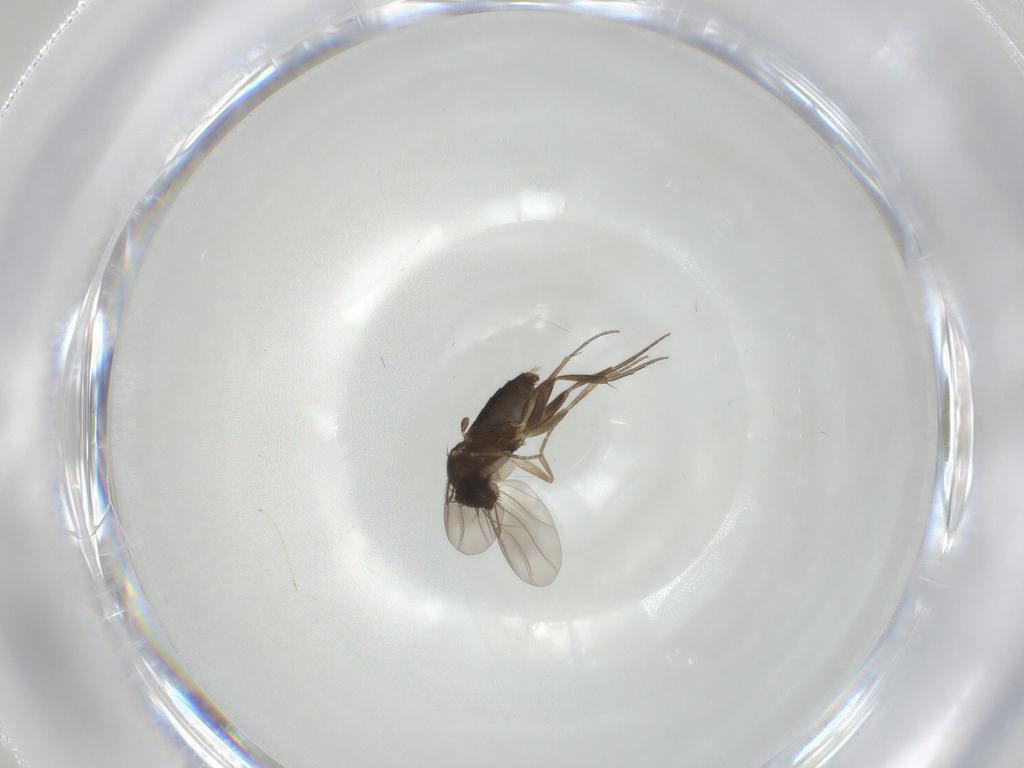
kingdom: Animalia
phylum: Arthropoda
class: Insecta
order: Diptera
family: Phoridae
